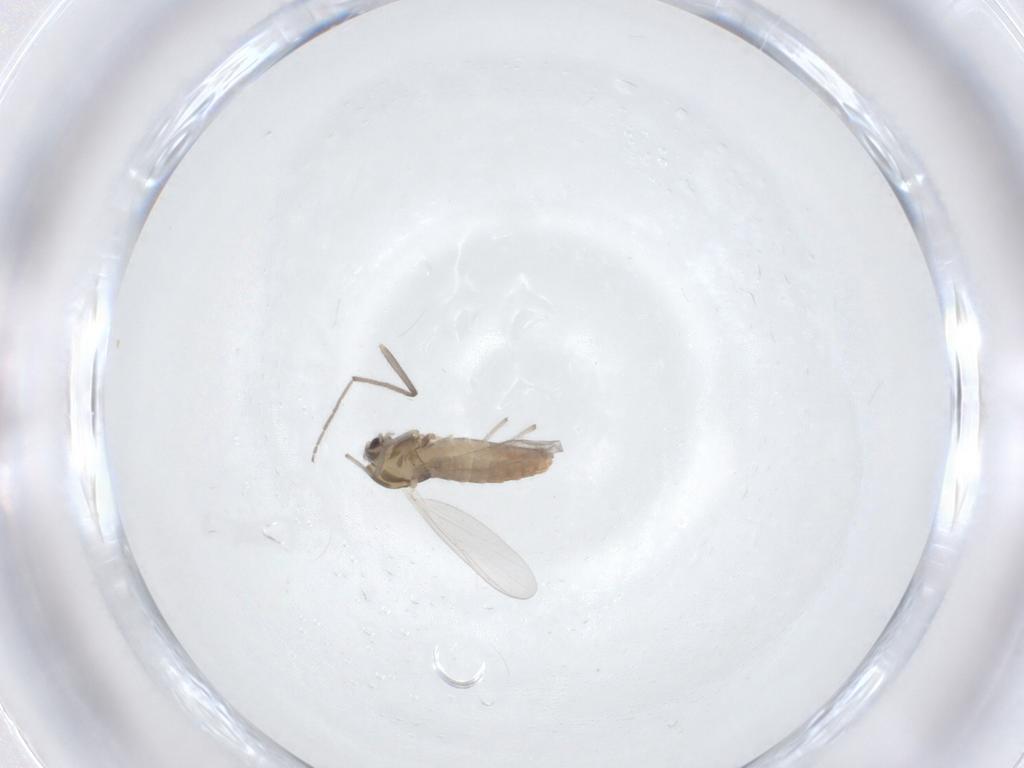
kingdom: Animalia
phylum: Arthropoda
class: Insecta
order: Diptera
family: Chironomidae
